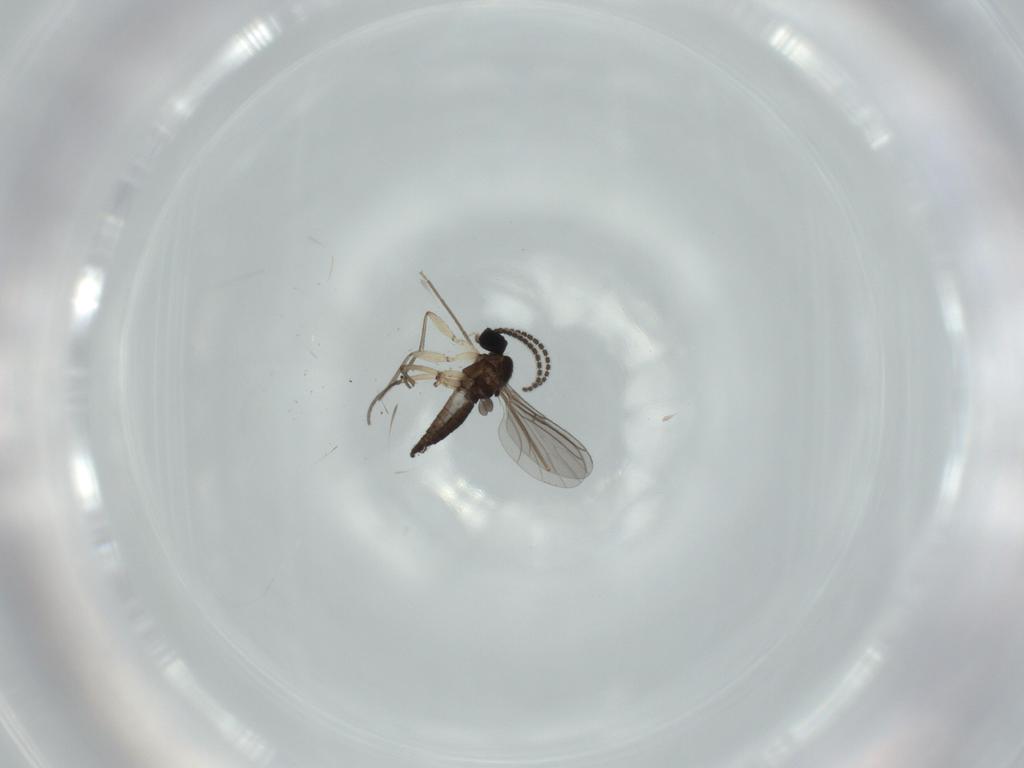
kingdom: Animalia
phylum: Arthropoda
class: Insecta
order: Diptera
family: Sciaridae
